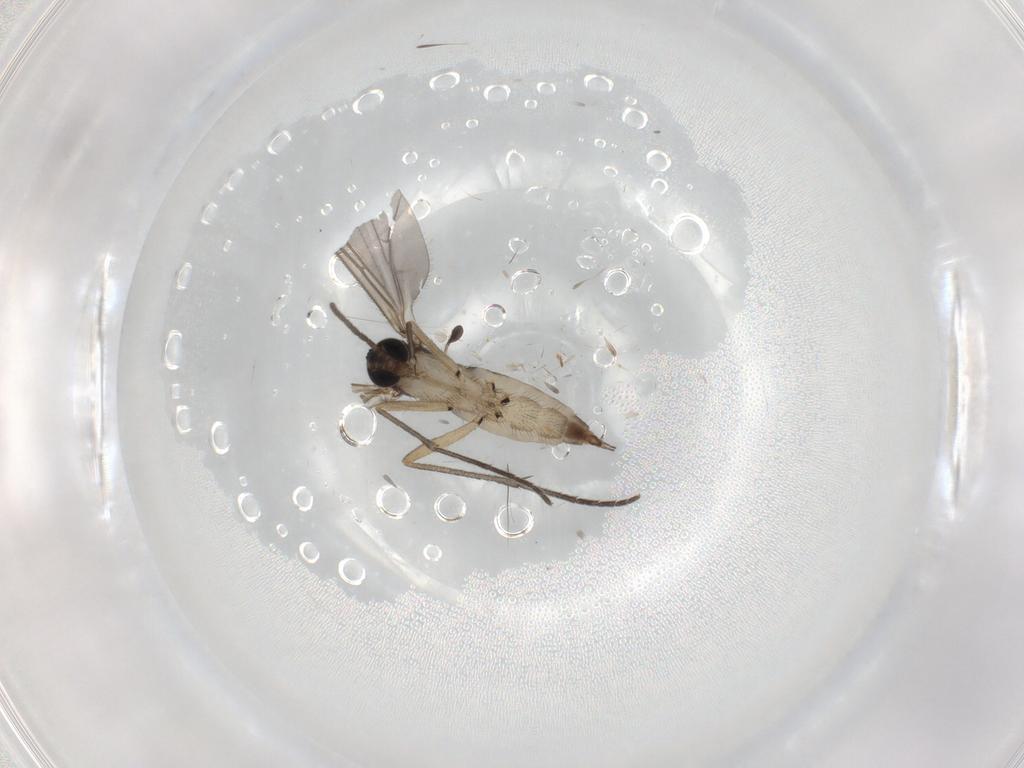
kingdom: Animalia
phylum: Arthropoda
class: Insecta
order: Diptera
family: Sciaridae
